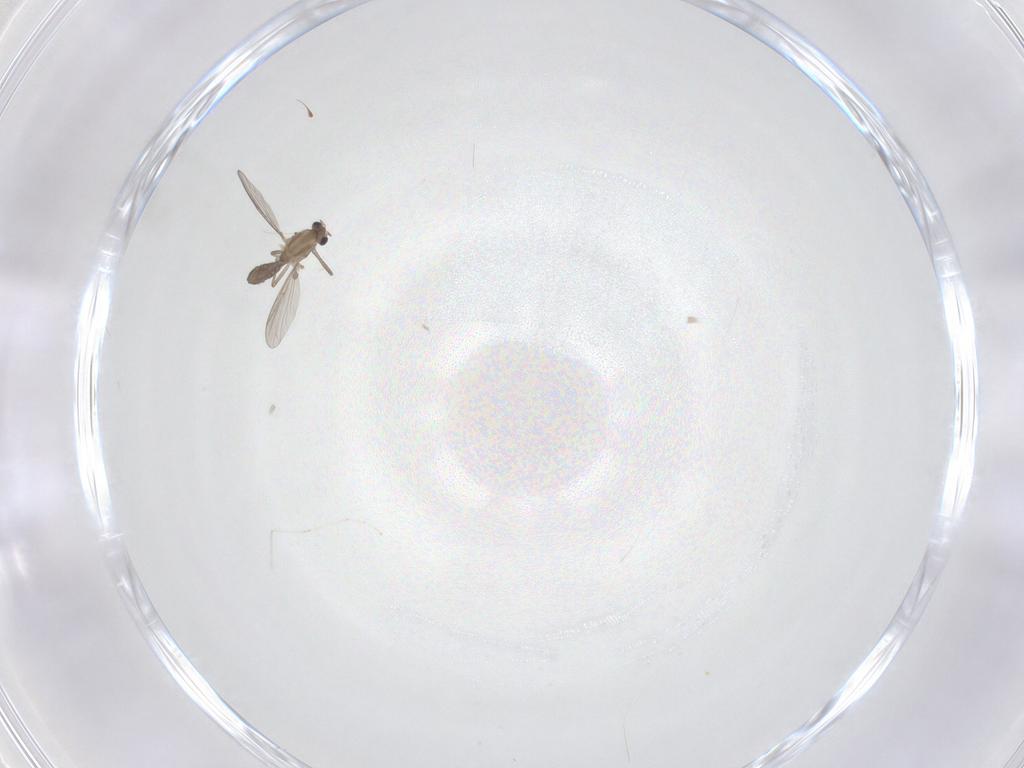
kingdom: Animalia
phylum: Arthropoda
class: Insecta
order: Diptera
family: Chironomidae
